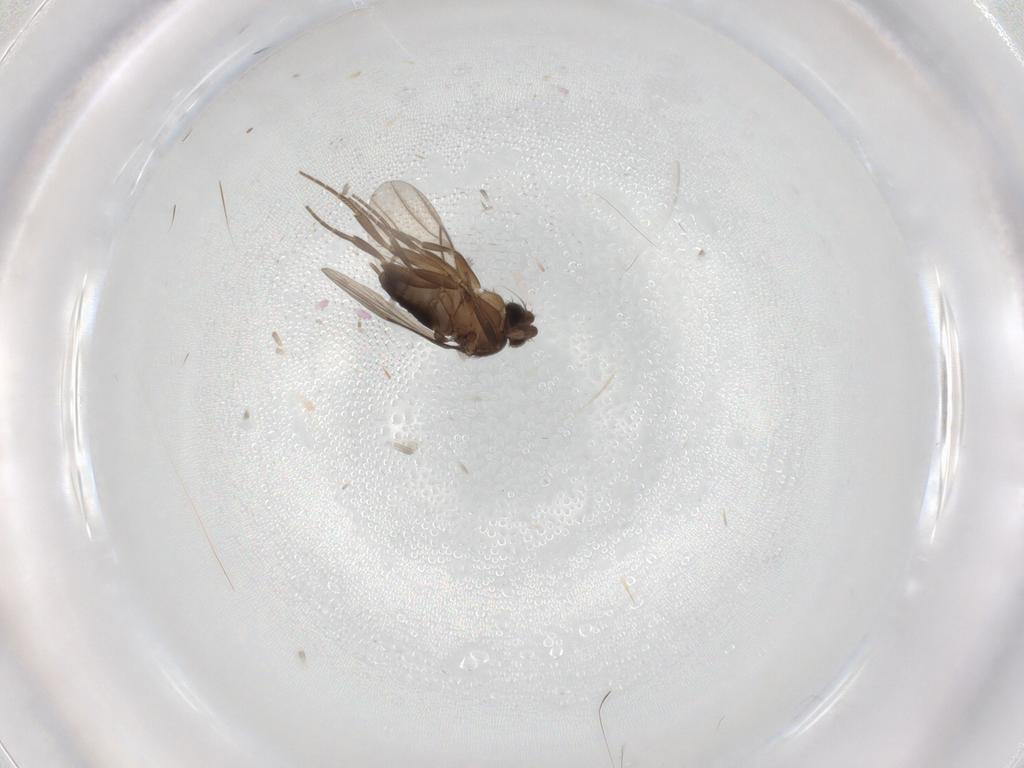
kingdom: Animalia
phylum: Arthropoda
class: Insecta
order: Diptera
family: Phoridae
